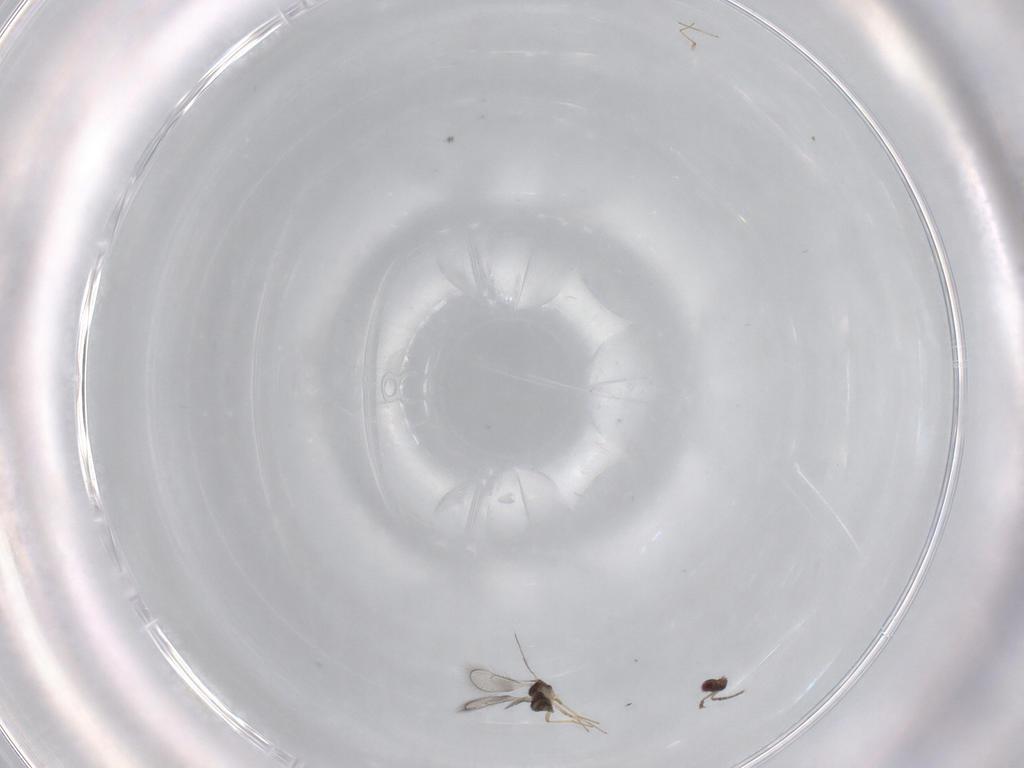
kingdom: Animalia
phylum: Arthropoda
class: Insecta
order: Hymenoptera
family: Eulophidae
